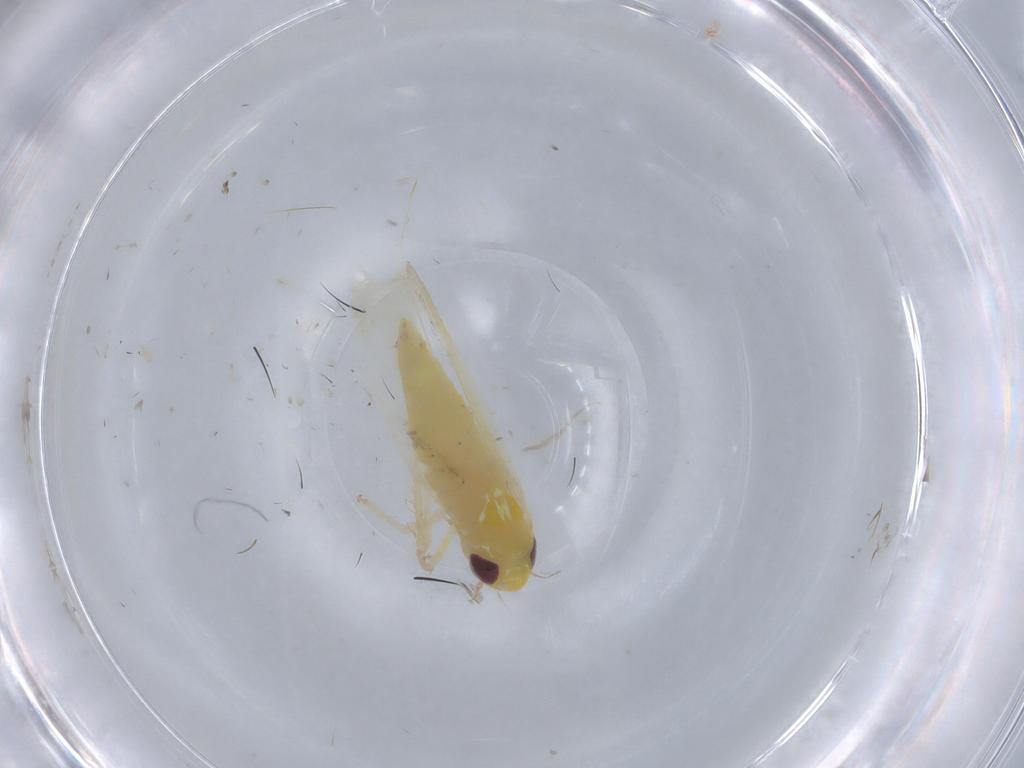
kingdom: Animalia
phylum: Arthropoda
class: Insecta
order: Hemiptera
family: Cicadellidae
